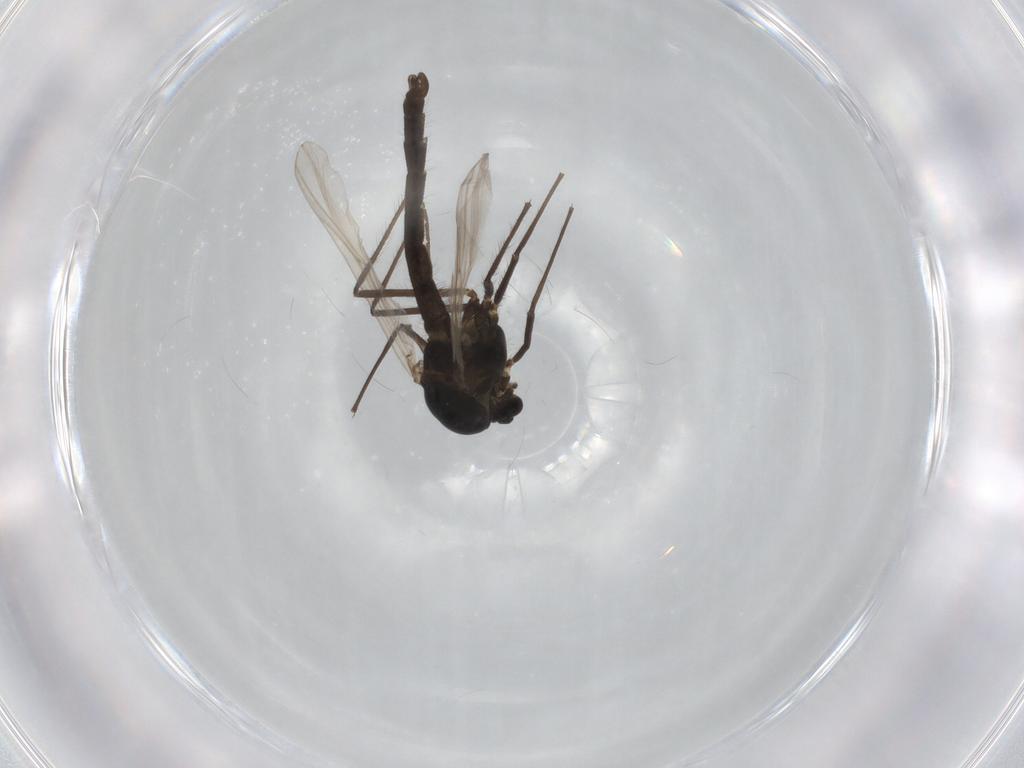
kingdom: Animalia
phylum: Arthropoda
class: Insecta
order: Diptera
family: Chironomidae
